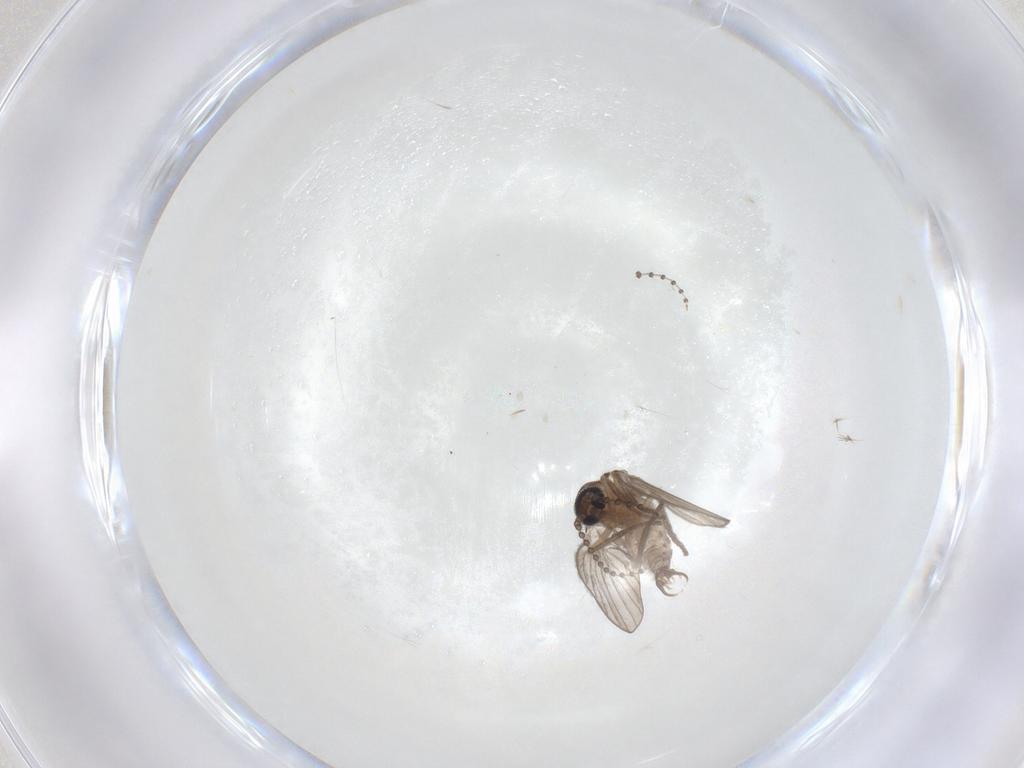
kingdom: Animalia
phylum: Arthropoda
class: Insecta
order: Diptera
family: Psychodidae
